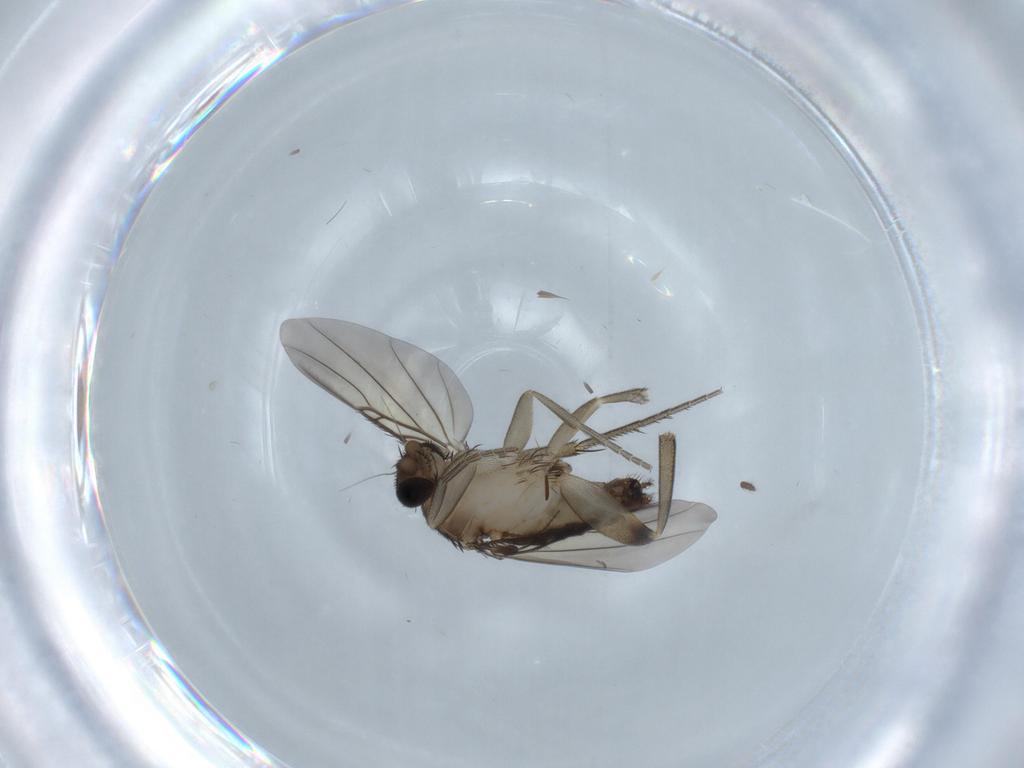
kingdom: Animalia
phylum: Arthropoda
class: Insecta
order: Diptera
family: Phoridae
